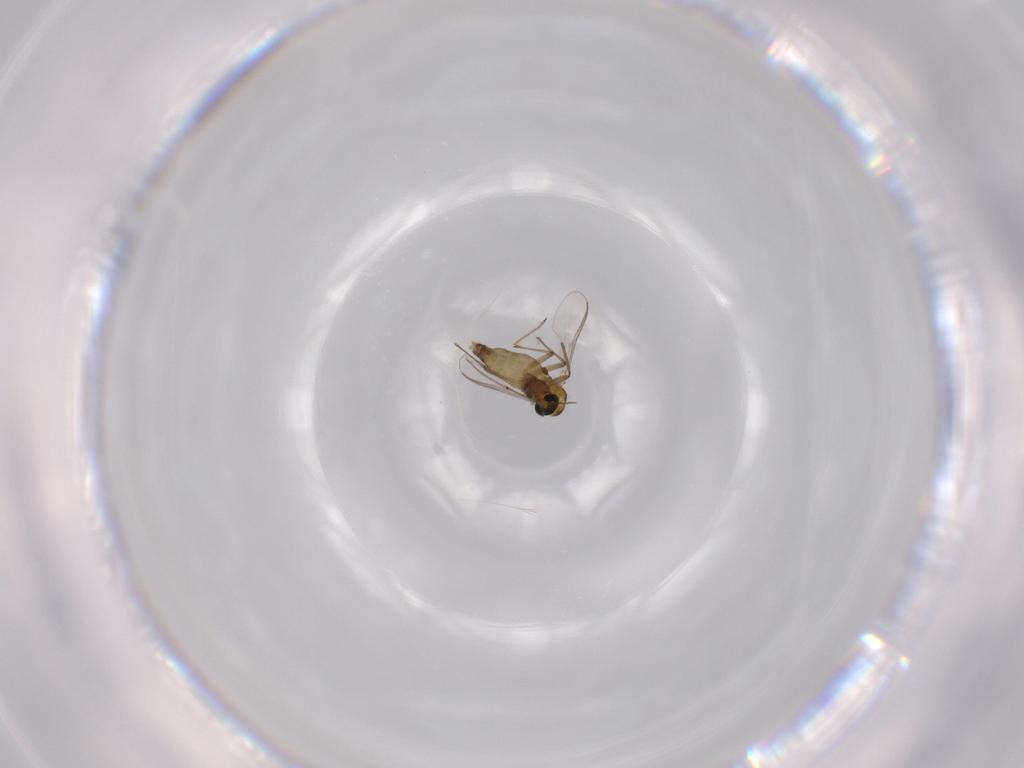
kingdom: Animalia
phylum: Arthropoda
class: Insecta
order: Diptera
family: Chironomidae
